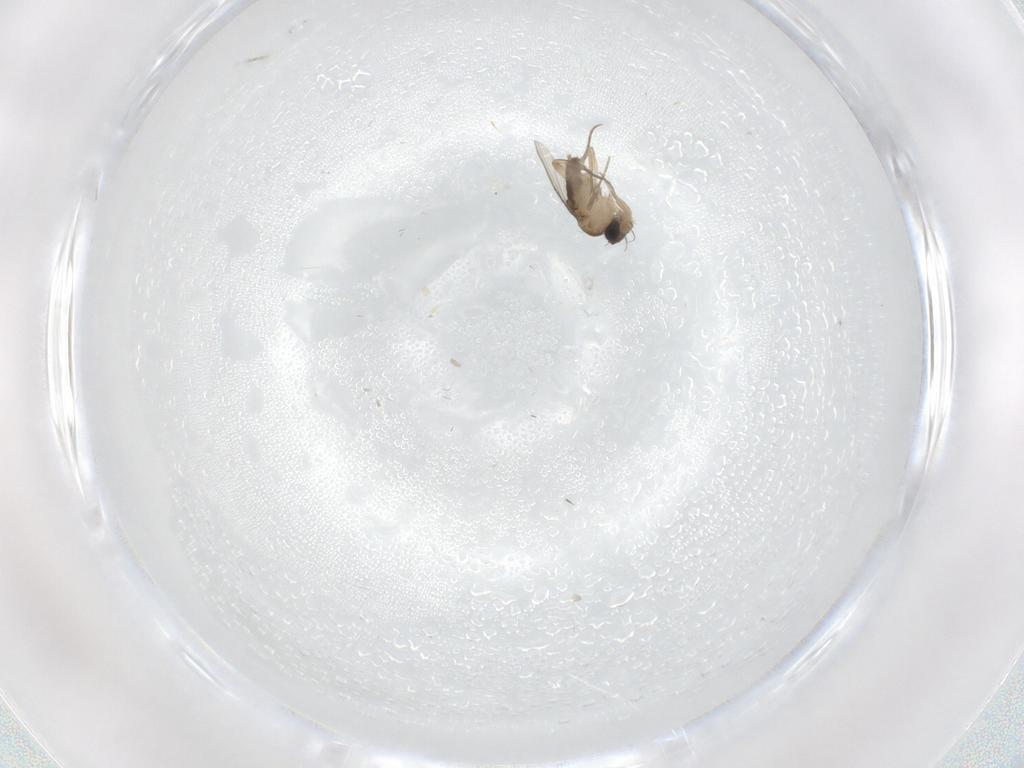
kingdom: Animalia
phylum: Arthropoda
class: Insecta
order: Diptera
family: Phoridae
